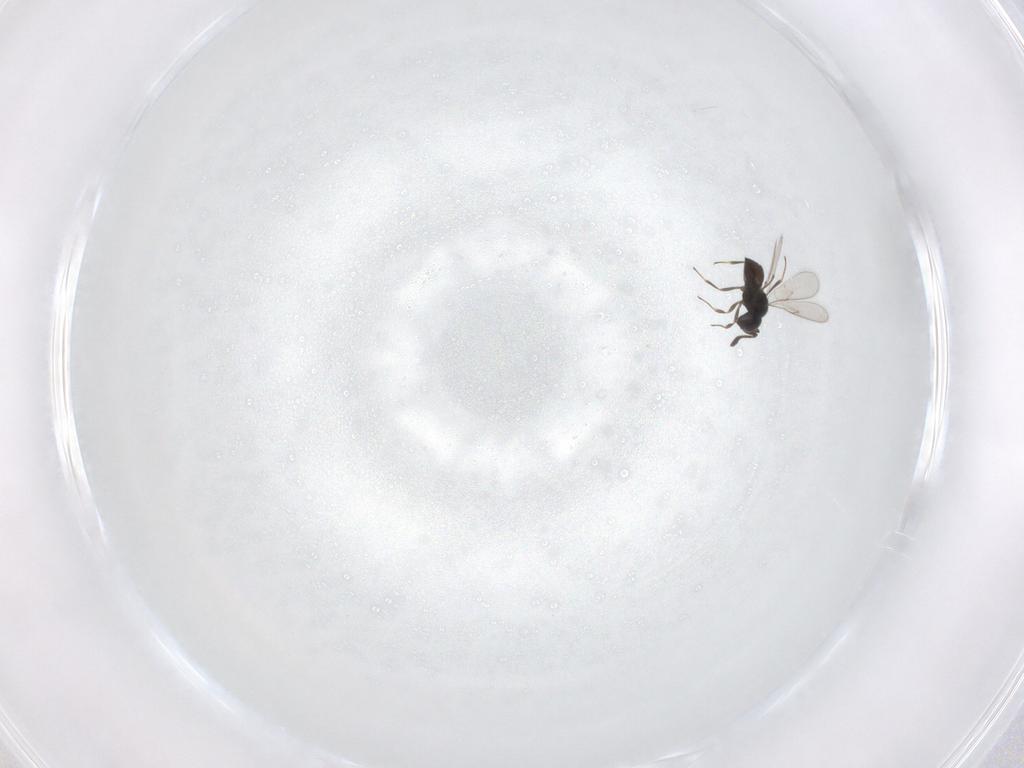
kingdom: Animalia
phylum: Arthropoda
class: Insecta
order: Hymenoptera
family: Scelionidae
